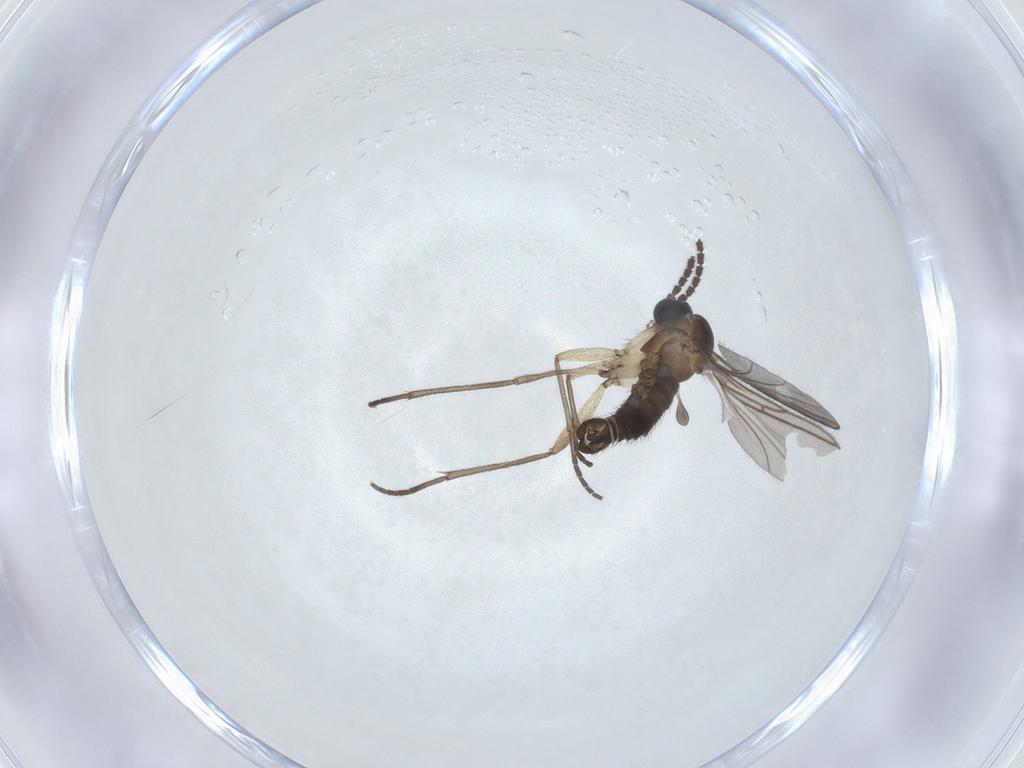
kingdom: Animalia
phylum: Arthropoda
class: Insecta
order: Diptera
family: Sciaridae
